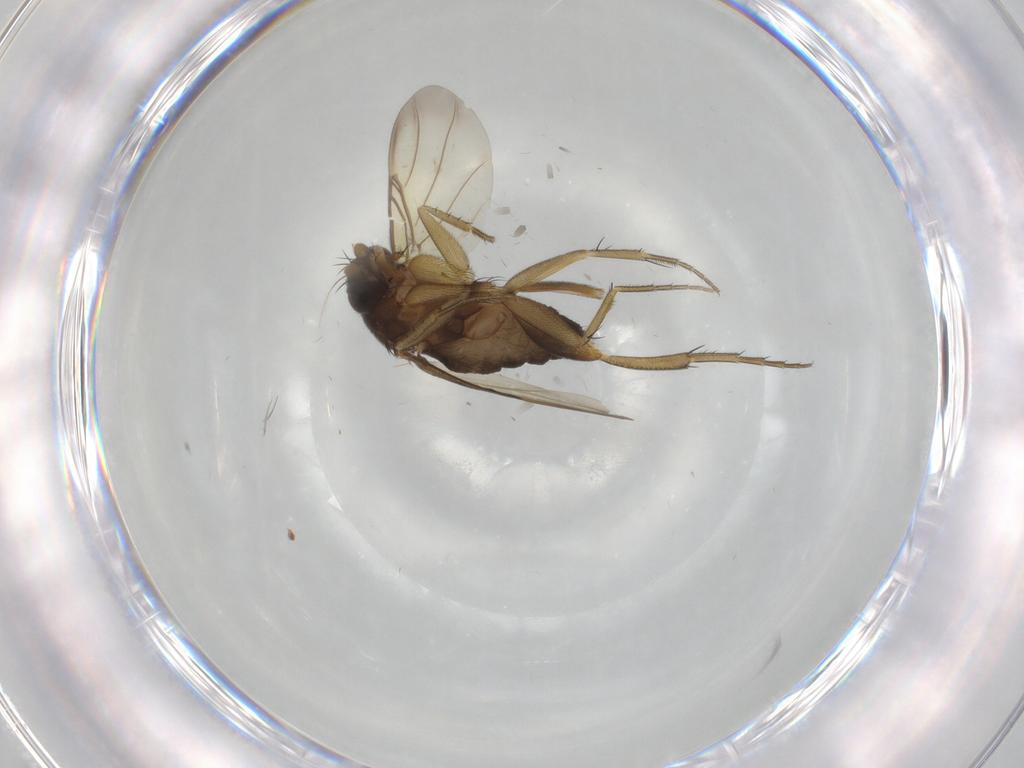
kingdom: Animalia
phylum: Arthropoda
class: Insecta
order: Diptera
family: Phoridae
